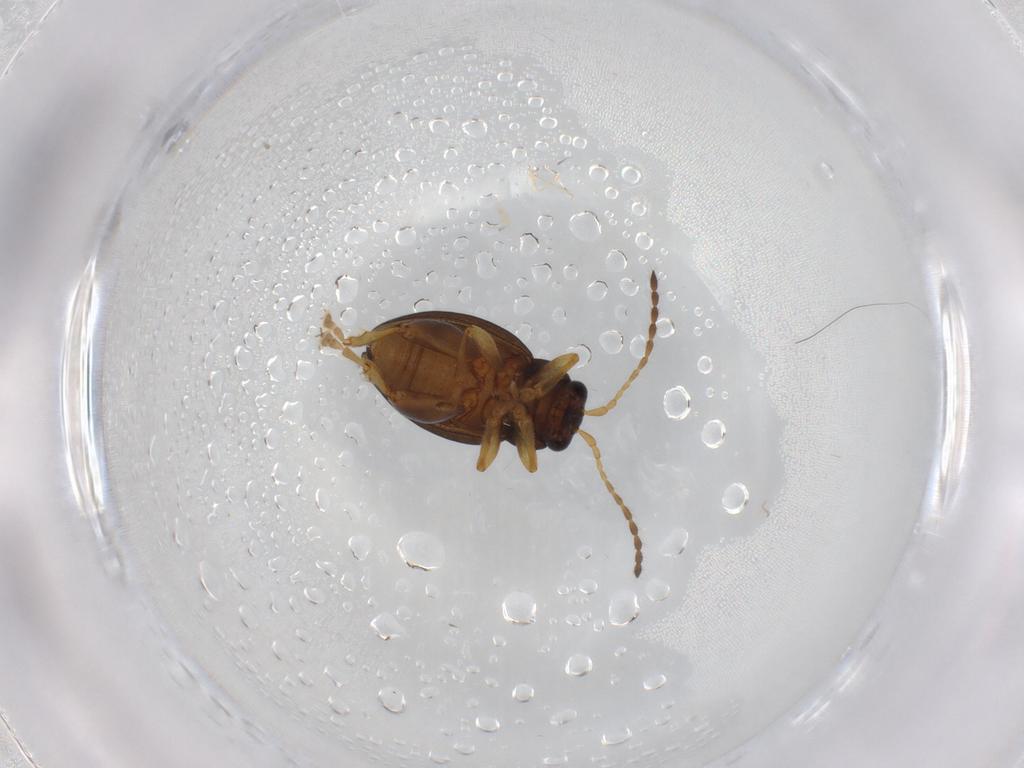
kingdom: Animalia
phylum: Arthropoda
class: Insecta
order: Coleoptera
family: Chrysomelidae
